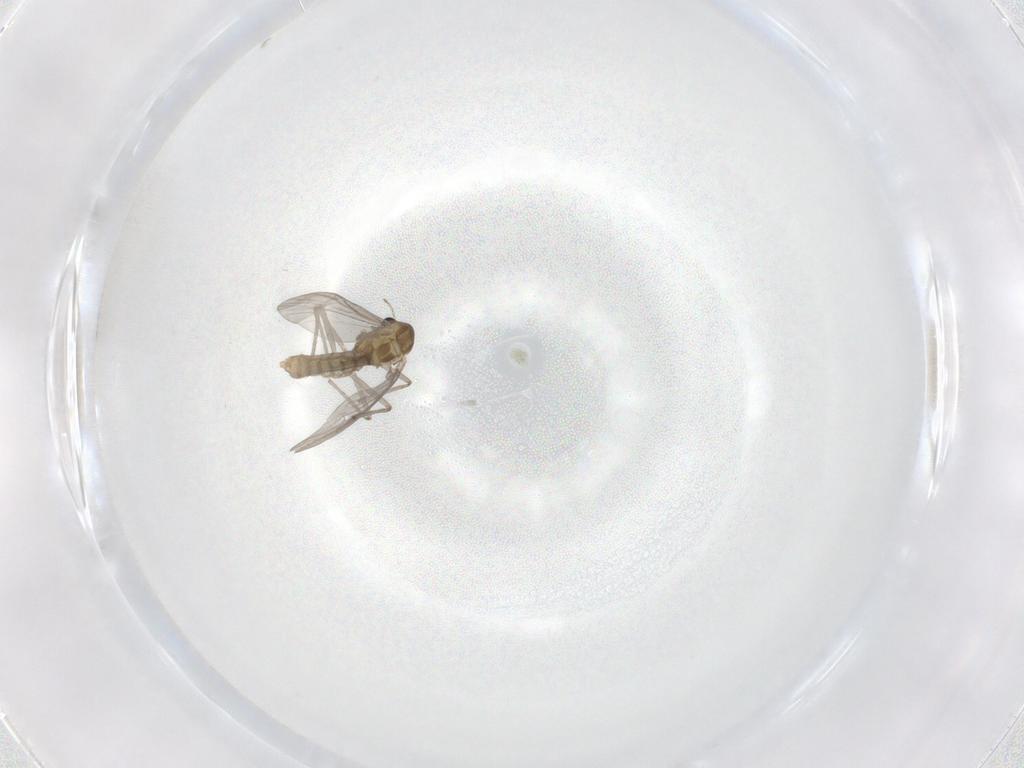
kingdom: Animalia
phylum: Arthropoda
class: Insecta
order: Diptera
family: Chironomidae
